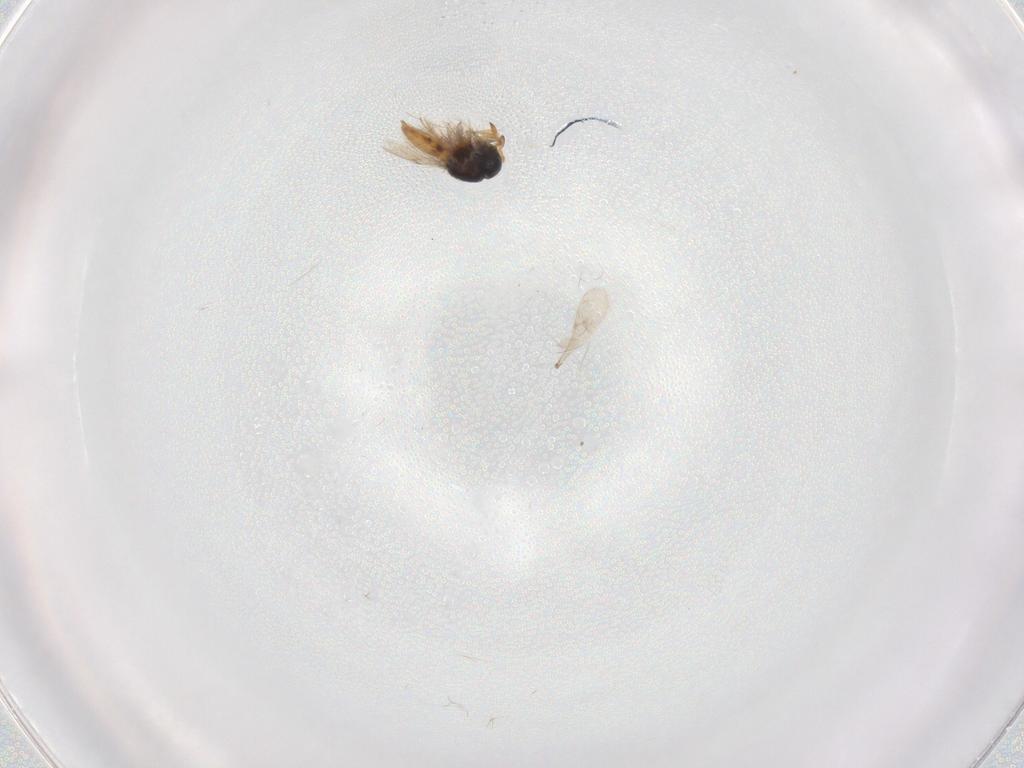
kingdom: Animalia
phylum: Arthropoda
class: Insecta
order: Hymenoptera
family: Scelionidae
